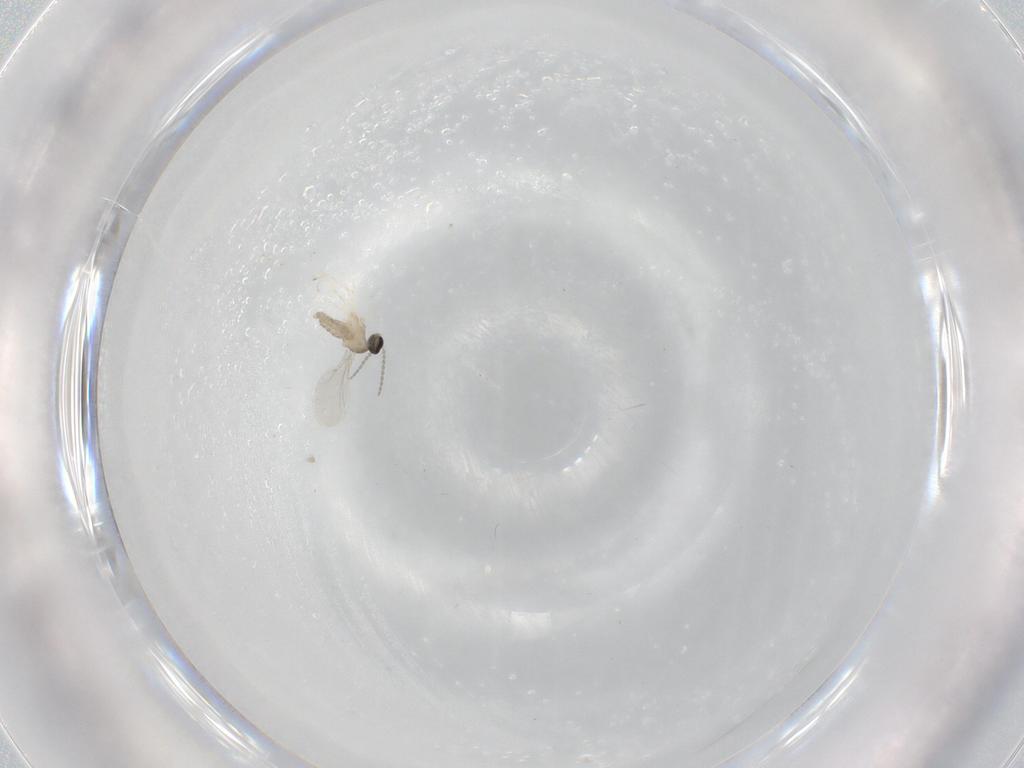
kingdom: Animalia
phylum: Arthropoda
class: Insecta
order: Diptera
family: Cecidomyiidae
